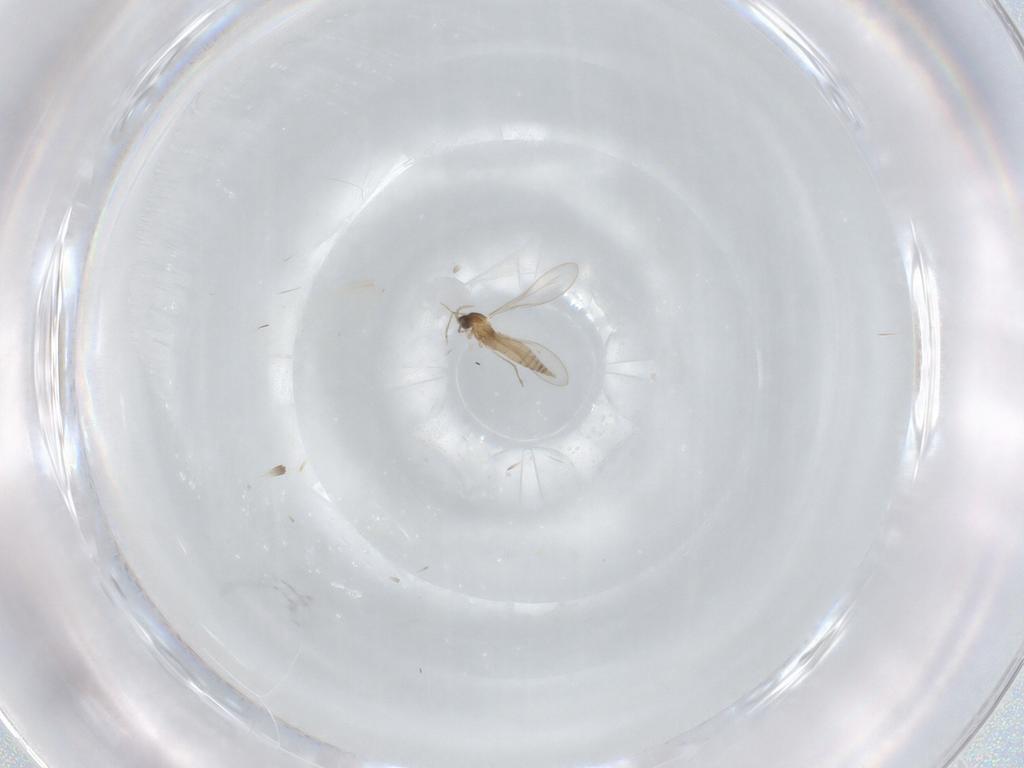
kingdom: Animalia
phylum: Arthropoda
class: Insecta
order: Diptera
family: Cecidomyiidae
